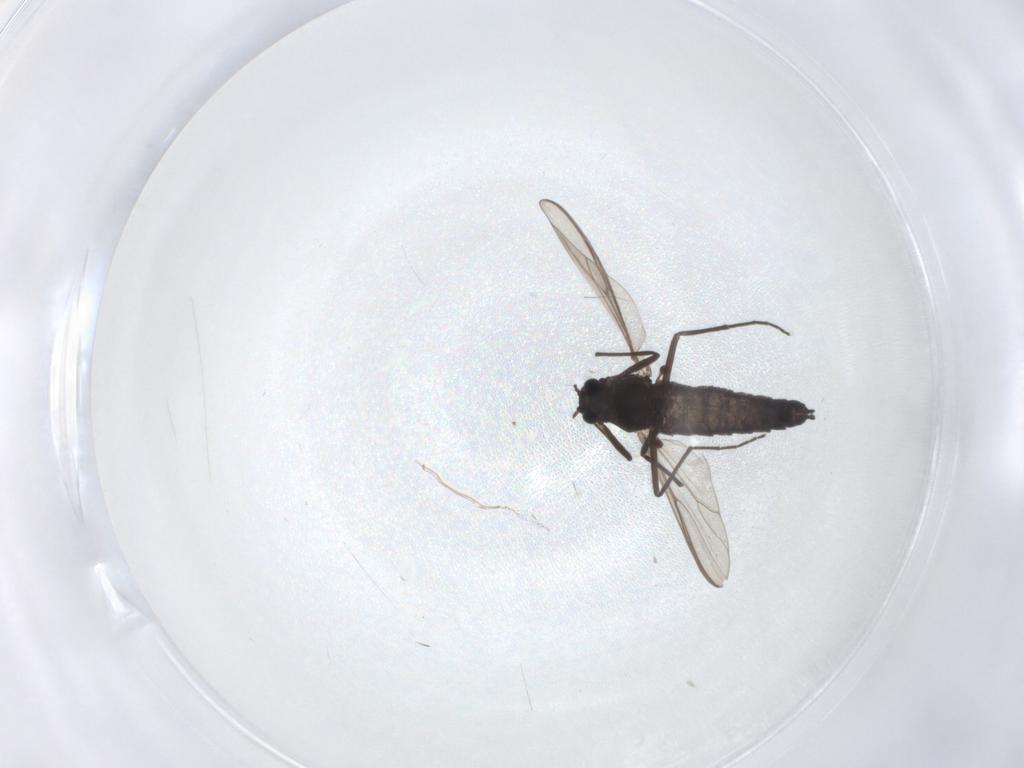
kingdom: Animalia
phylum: Arthropoda
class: Insecta
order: Diptera
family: Chironomidae
